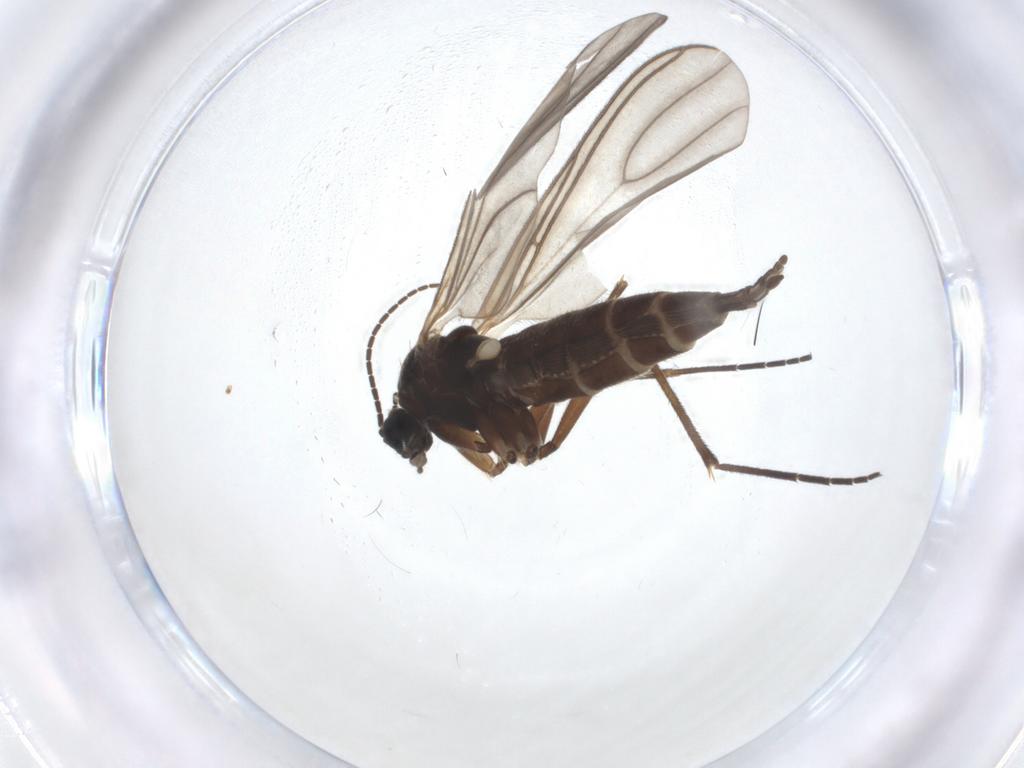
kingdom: Animalia
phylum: Arthropoda
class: Insecta
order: Diptera
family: Sciaridae
